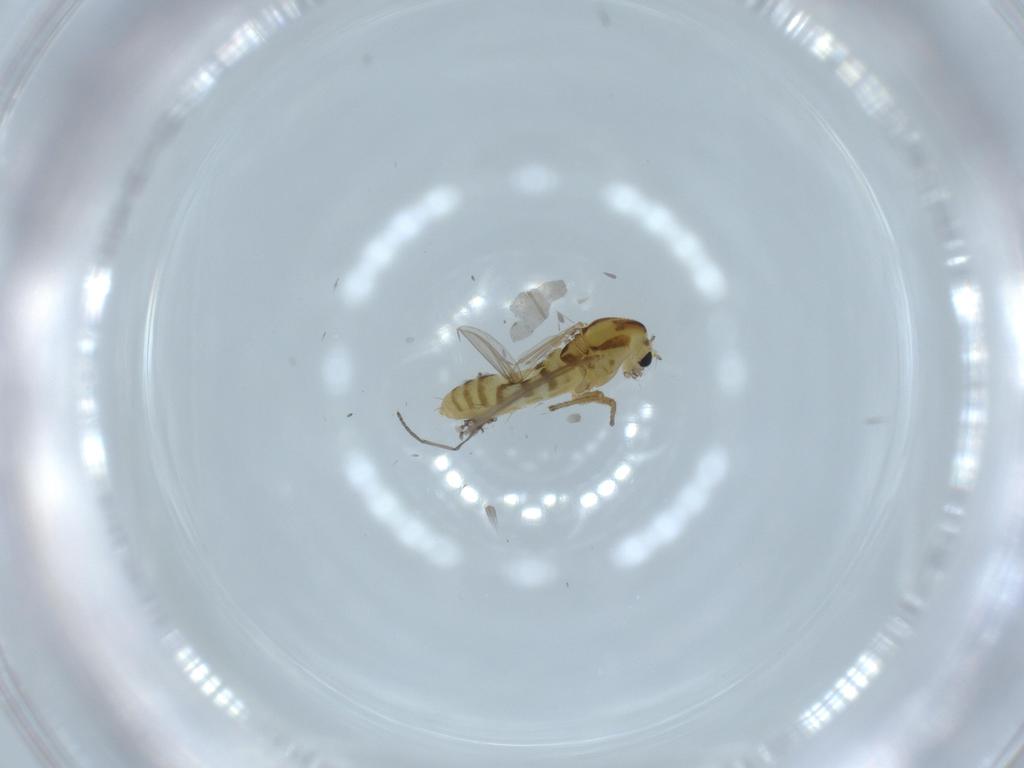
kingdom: Animalia
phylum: Arthropoda
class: Insecta
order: Diptera
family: Chironomidae
